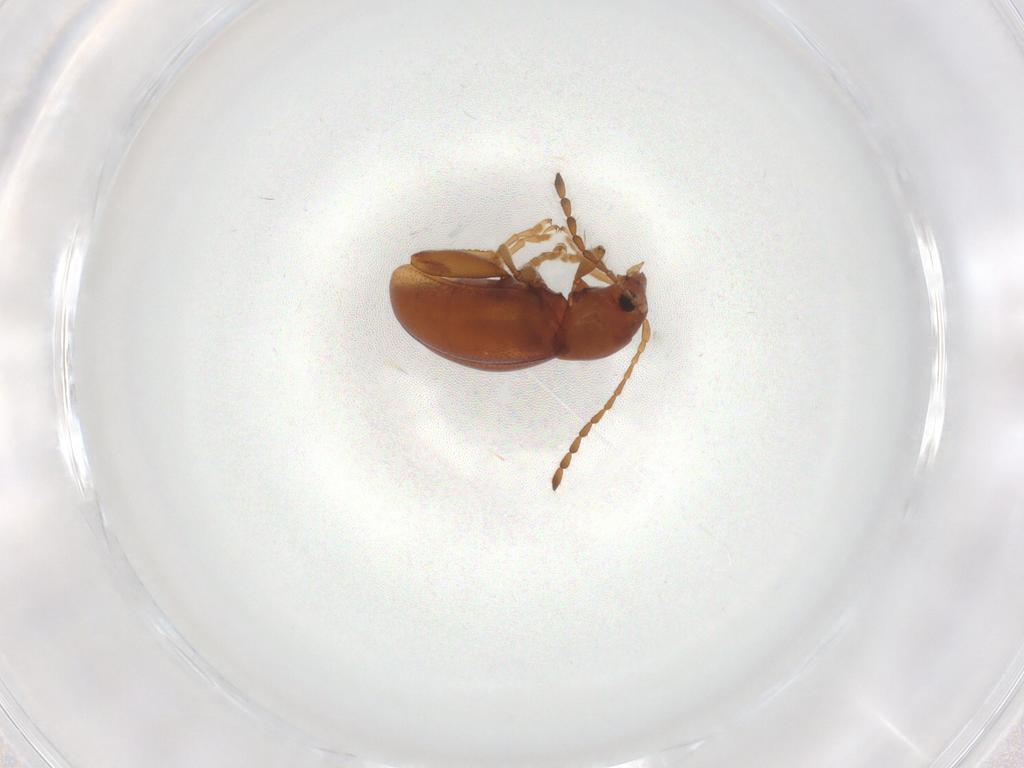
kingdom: Animalia
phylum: Arthropoda
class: Insecta
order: Coleoptera
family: Chrysomelidae
